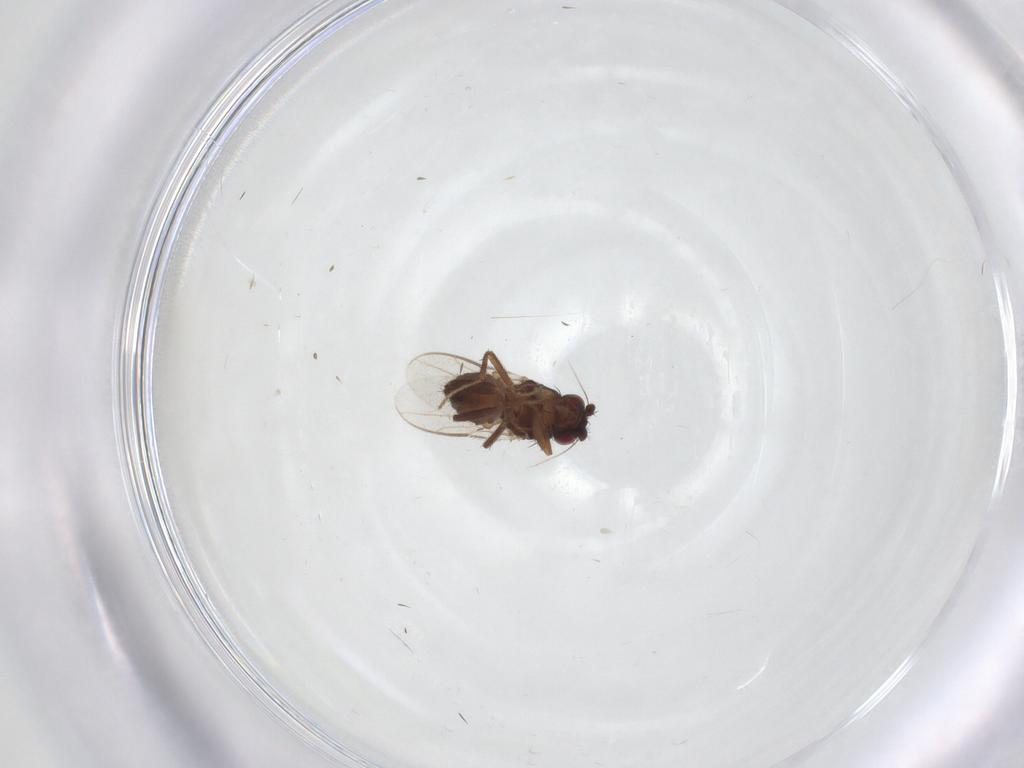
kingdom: Animalia
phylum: Arthropoda
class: Insecta
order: Diptera
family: Sphaeroceridae
